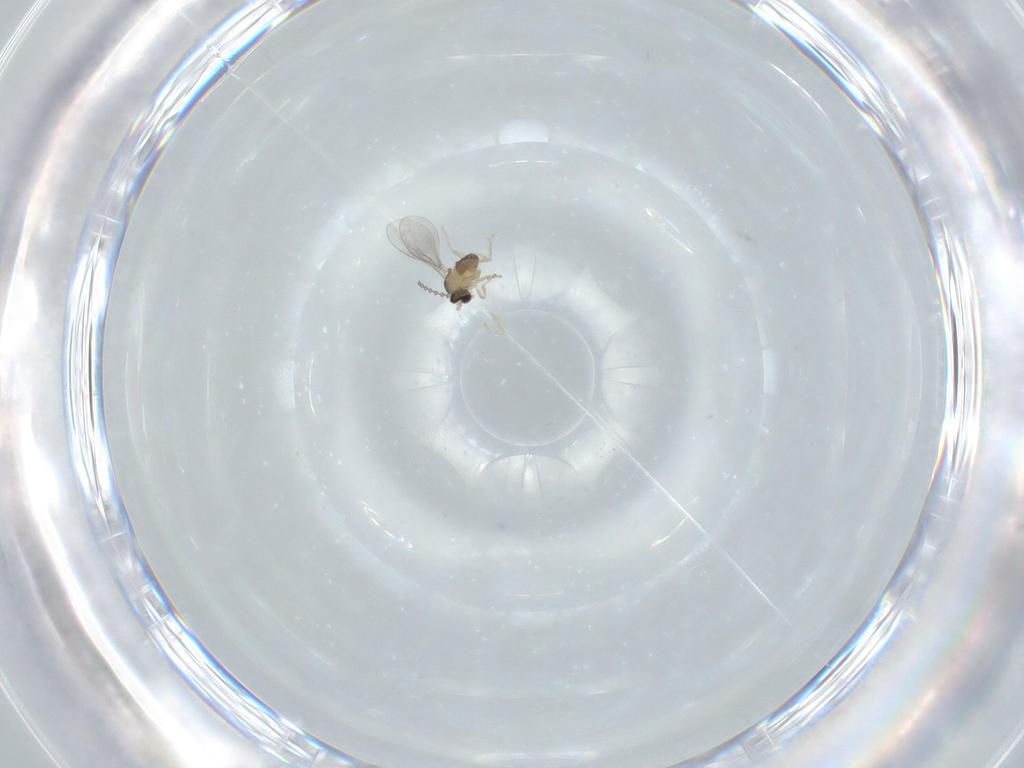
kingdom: Animalia
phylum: Arthropoda
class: Insecta
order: Diptera
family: Cecidomyiidae
